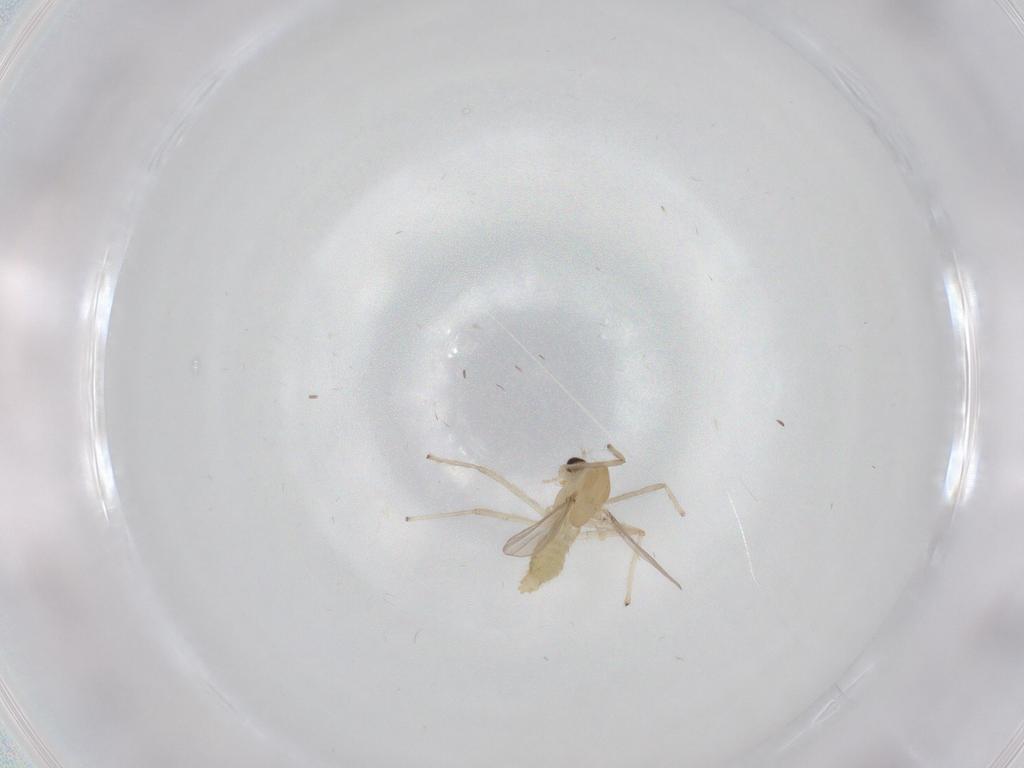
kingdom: Animalia
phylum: Arthropoda
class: Insecta
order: Diptera
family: Chironomidae
